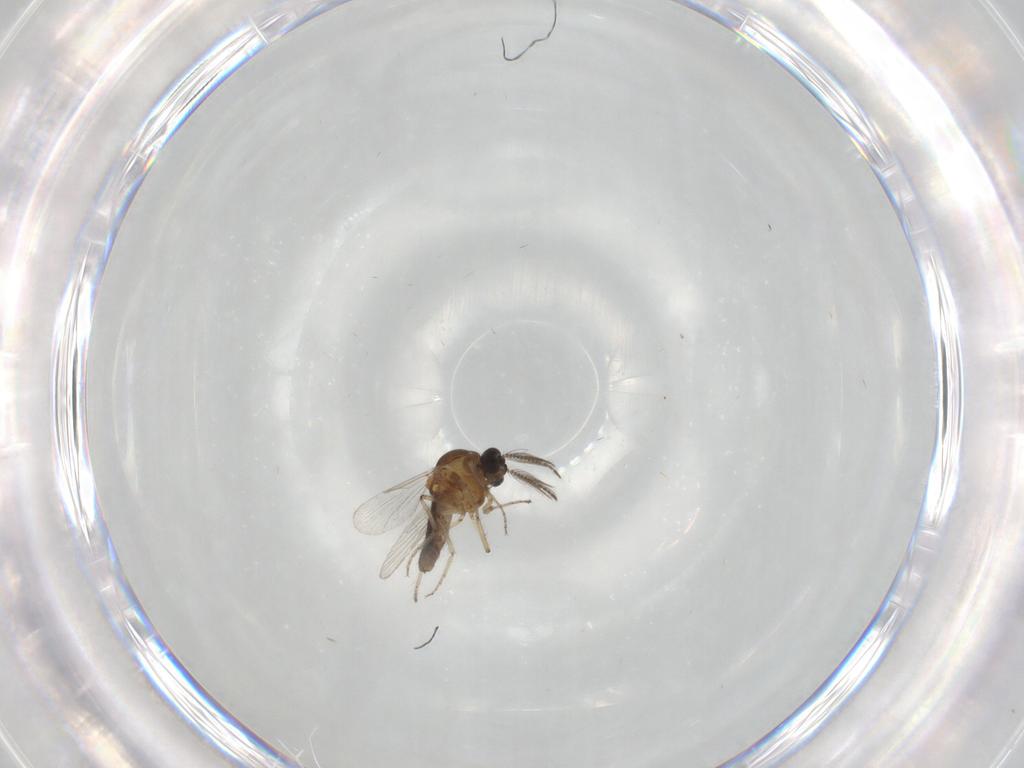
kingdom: Animalia
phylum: Arthropoda
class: Insecta
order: Diptera
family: Ceratopogonidae
